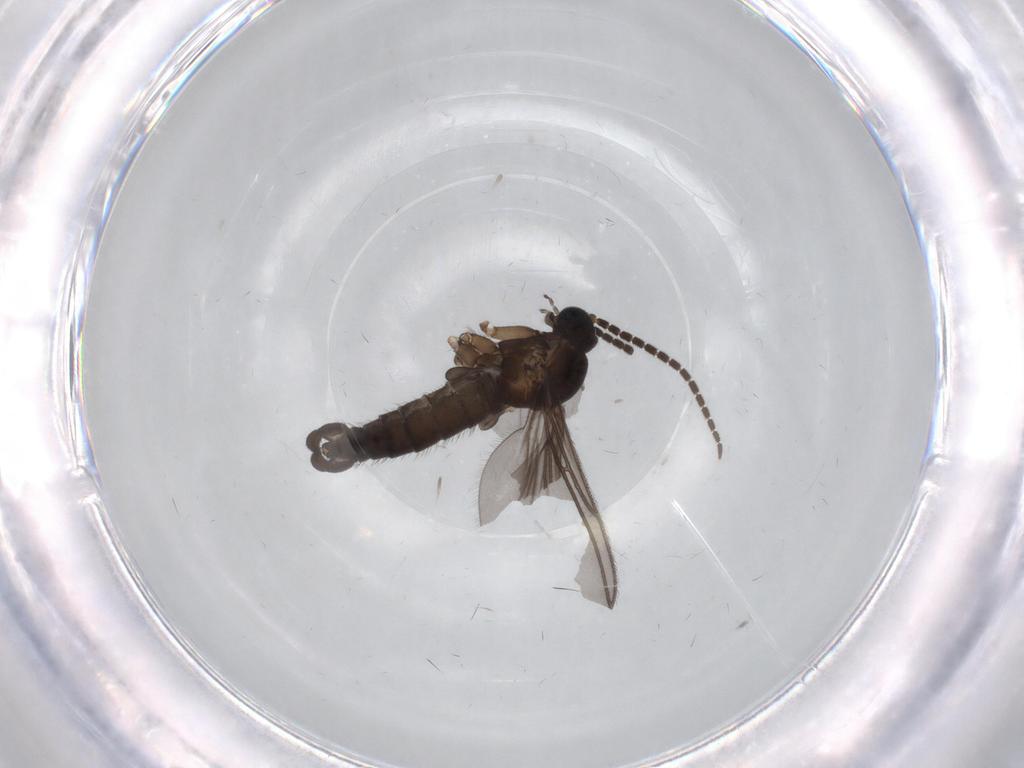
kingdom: Animalia
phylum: Arthropoda
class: Insecta
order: Diptera
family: Sciaridae
